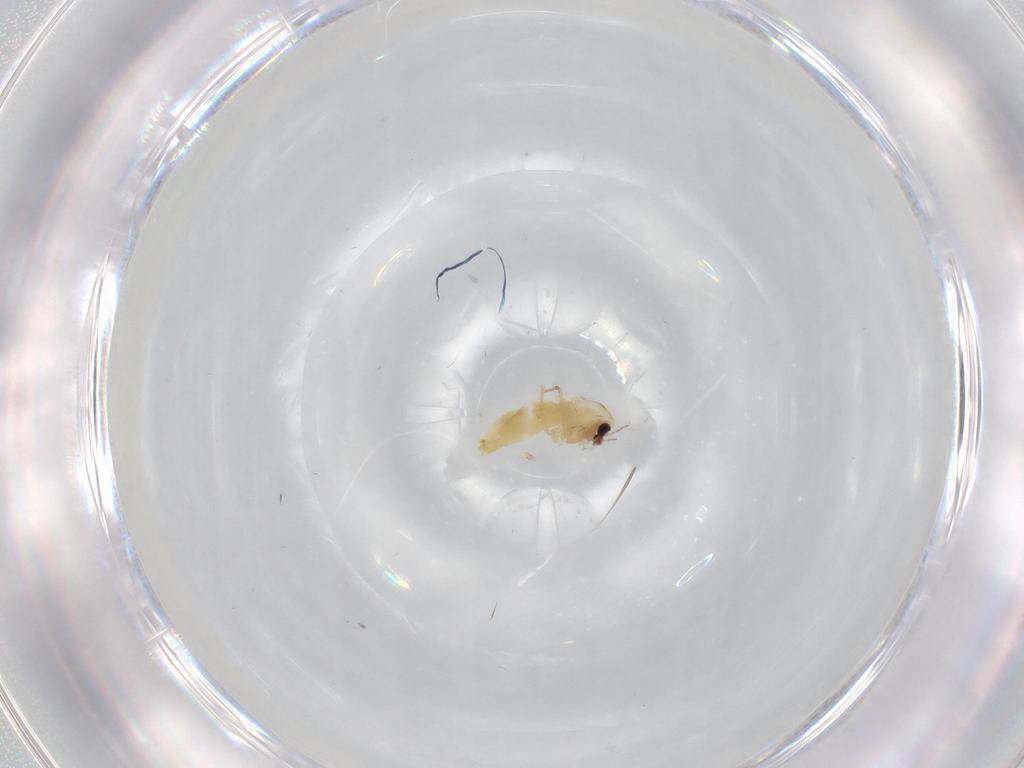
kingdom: Animalia
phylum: Arthropoda
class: Insecta
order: Diptera
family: Chironomidae
